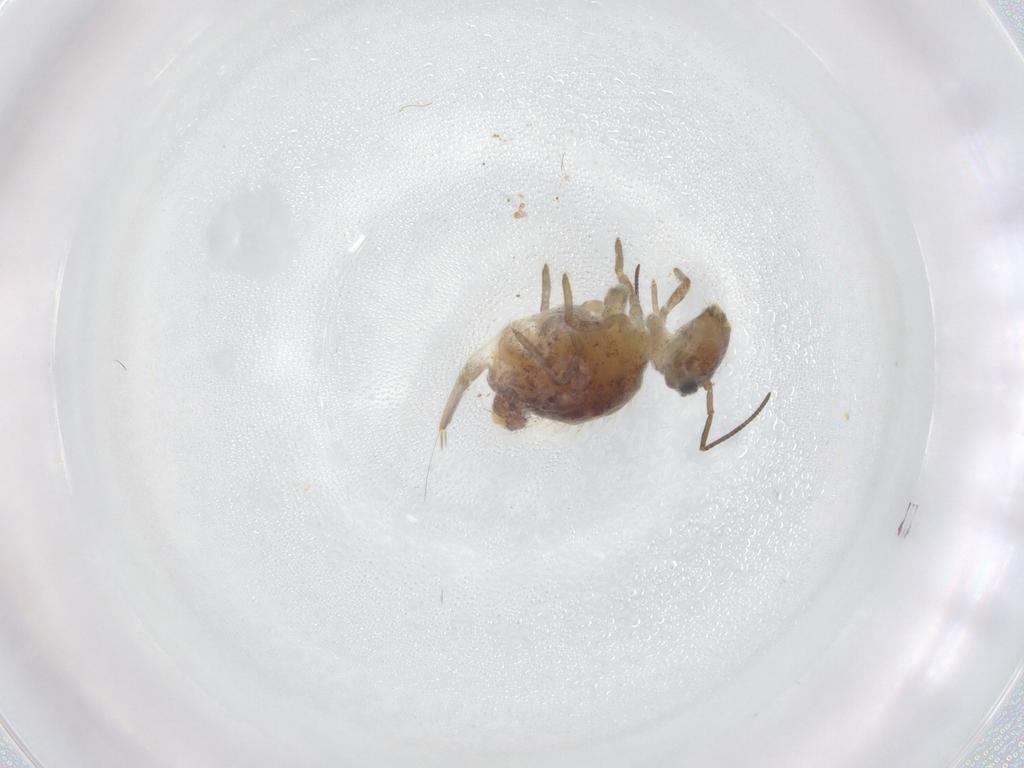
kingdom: Animalia
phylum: Arthropoda
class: Collembola
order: Symphypleona
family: Sminthuridae
